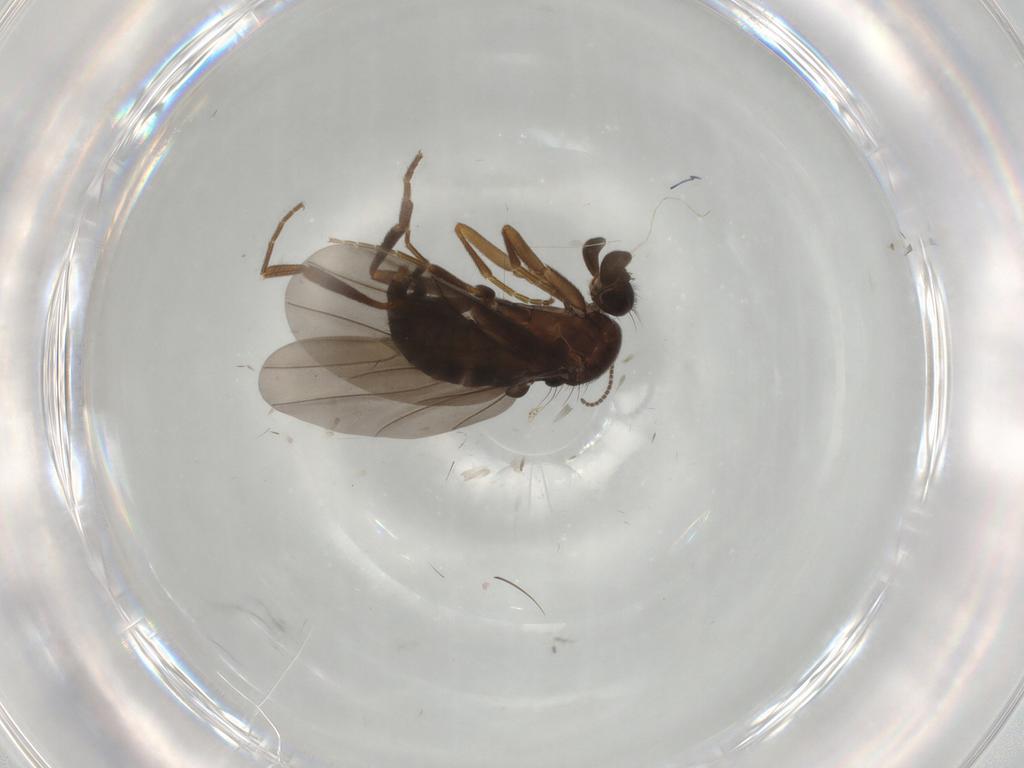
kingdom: Animalia
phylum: Arthropoda
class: Insecta
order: Diptera
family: Phoridae
